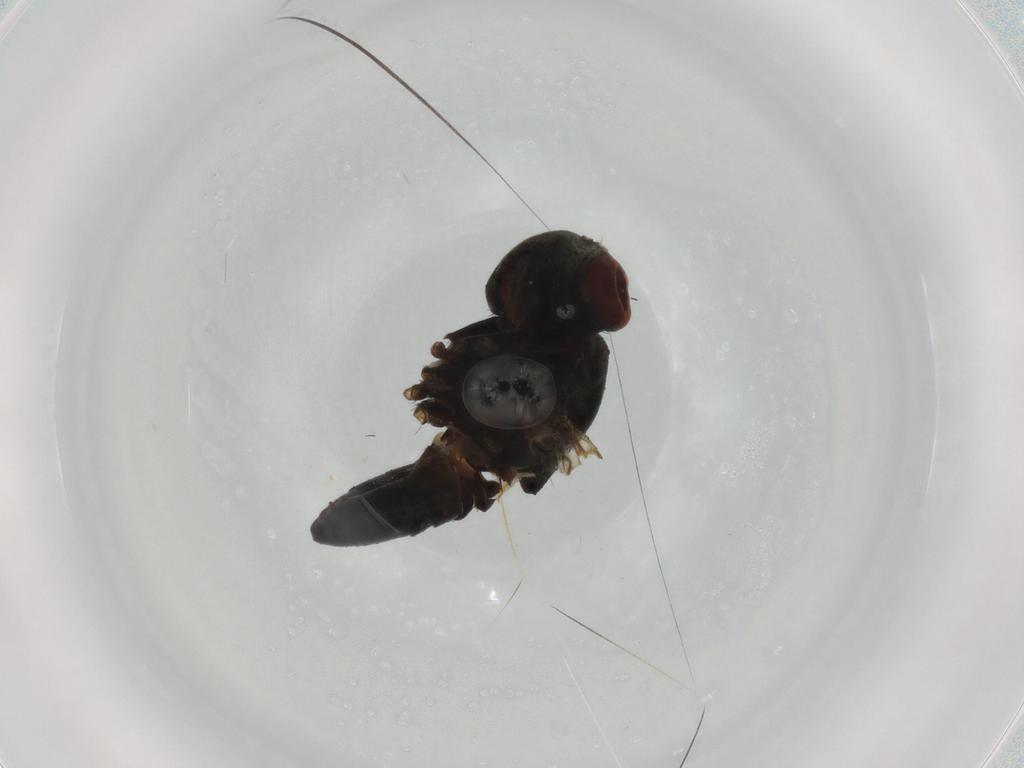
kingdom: Animalia
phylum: Arthropoda
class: Insecta
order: Diptera
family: Ephydridae
